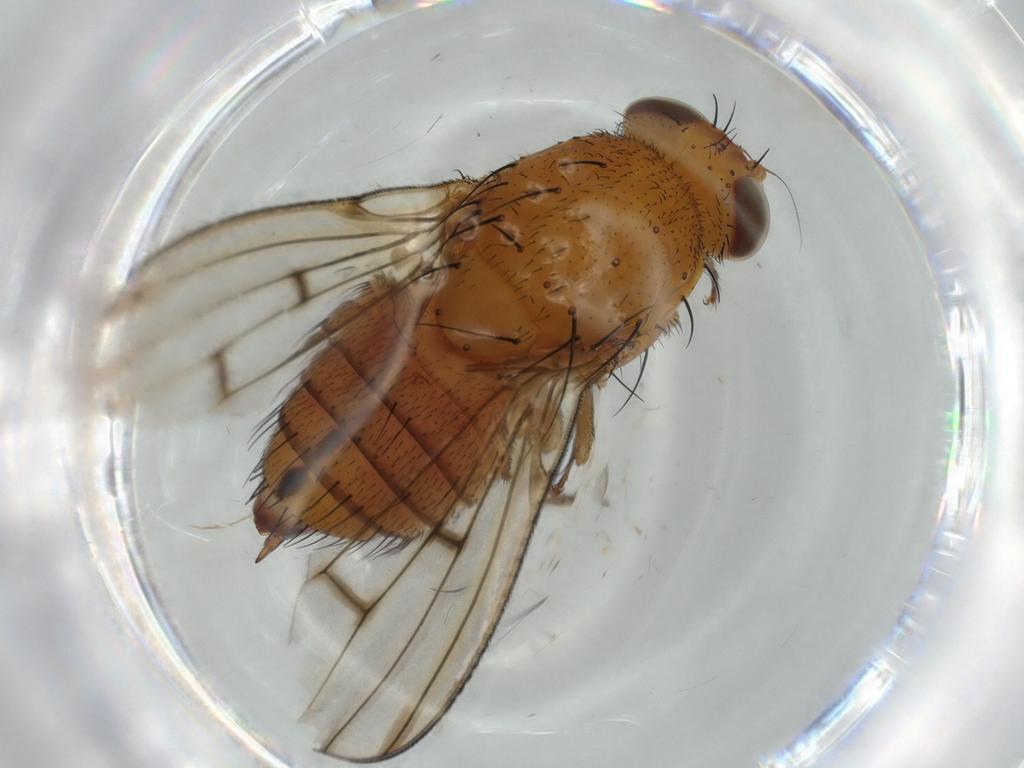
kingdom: Animalia
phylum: Arthropoda
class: Insecta
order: Diptera
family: Cecidomyiidae
